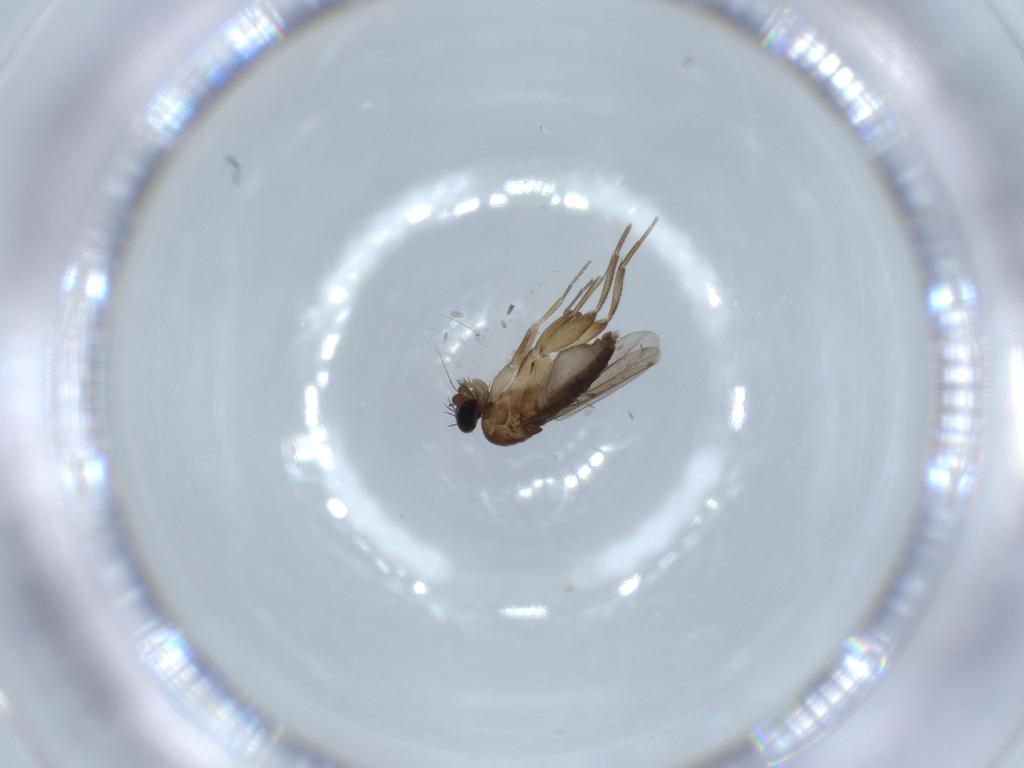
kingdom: Animalia
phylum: Arthropoda
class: Insecta
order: Diptera
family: Phoridae
